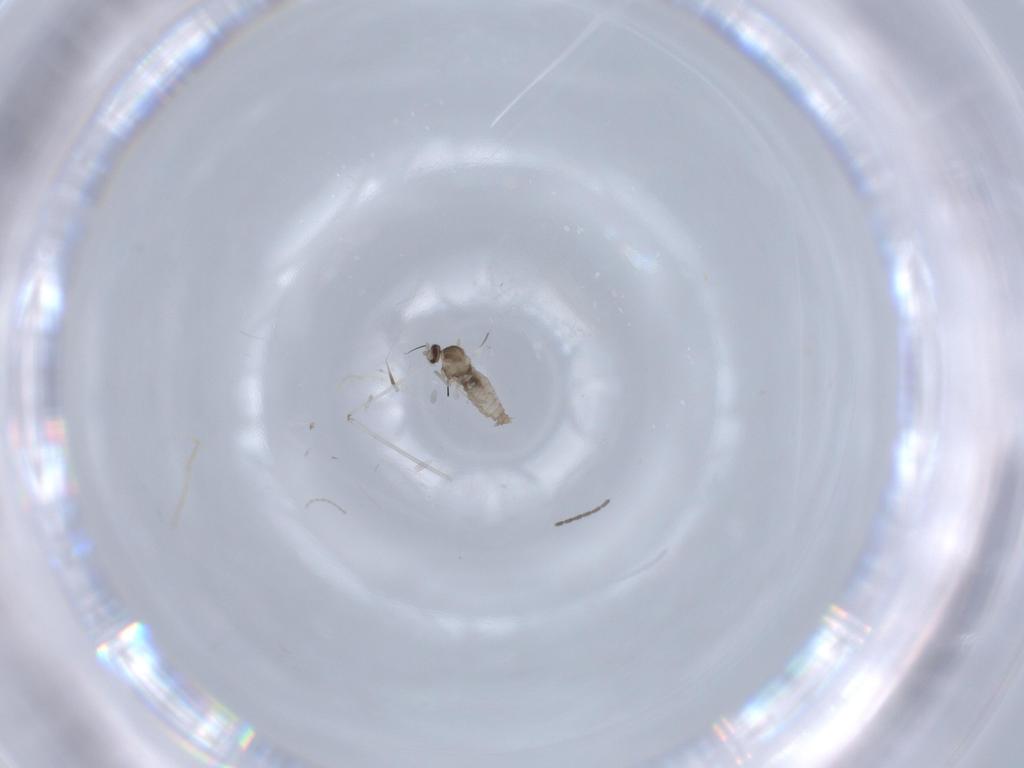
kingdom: Animalia
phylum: Arthropoda
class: Insecta
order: Diptera
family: Cecidomyiidae
